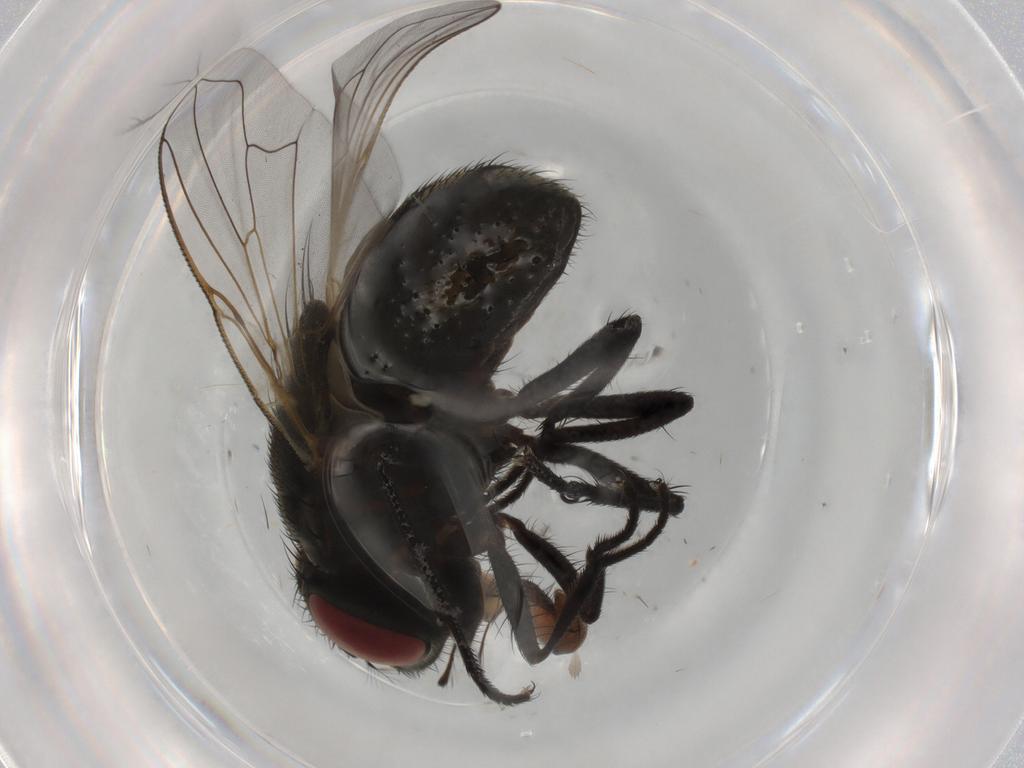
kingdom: Animalia
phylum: Arthropoda
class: Insecta
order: Diptera
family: Muscidae
